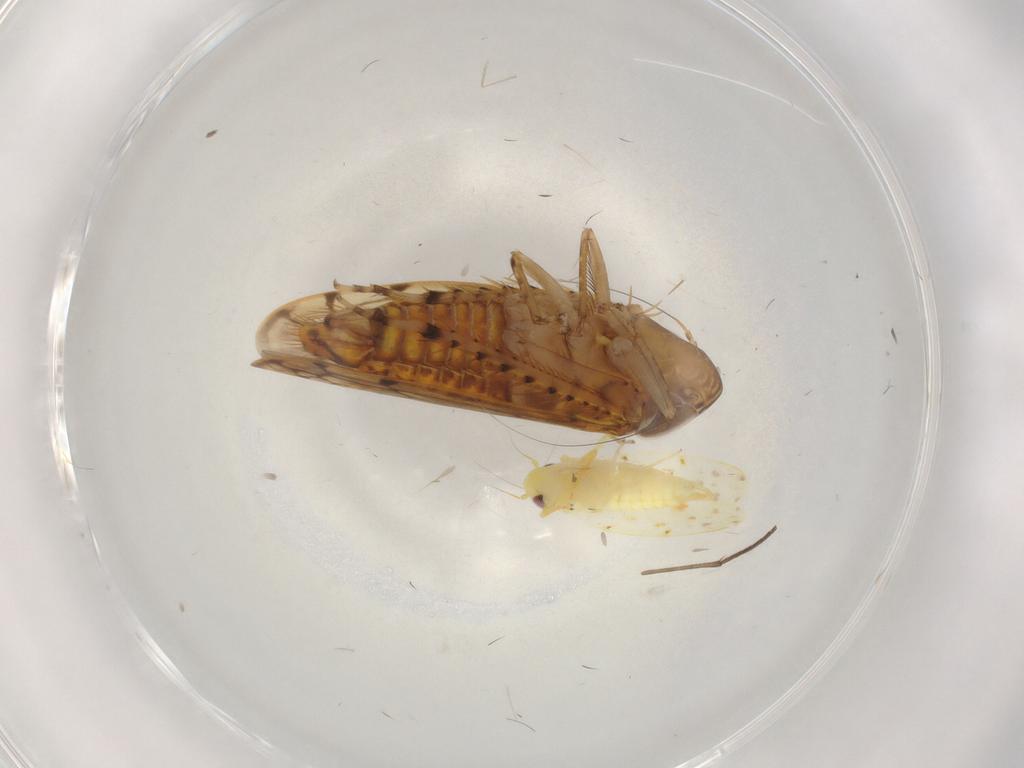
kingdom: Animalia
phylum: Arthropoda
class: Insecta
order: Hemiptera
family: Aleyrodidae
